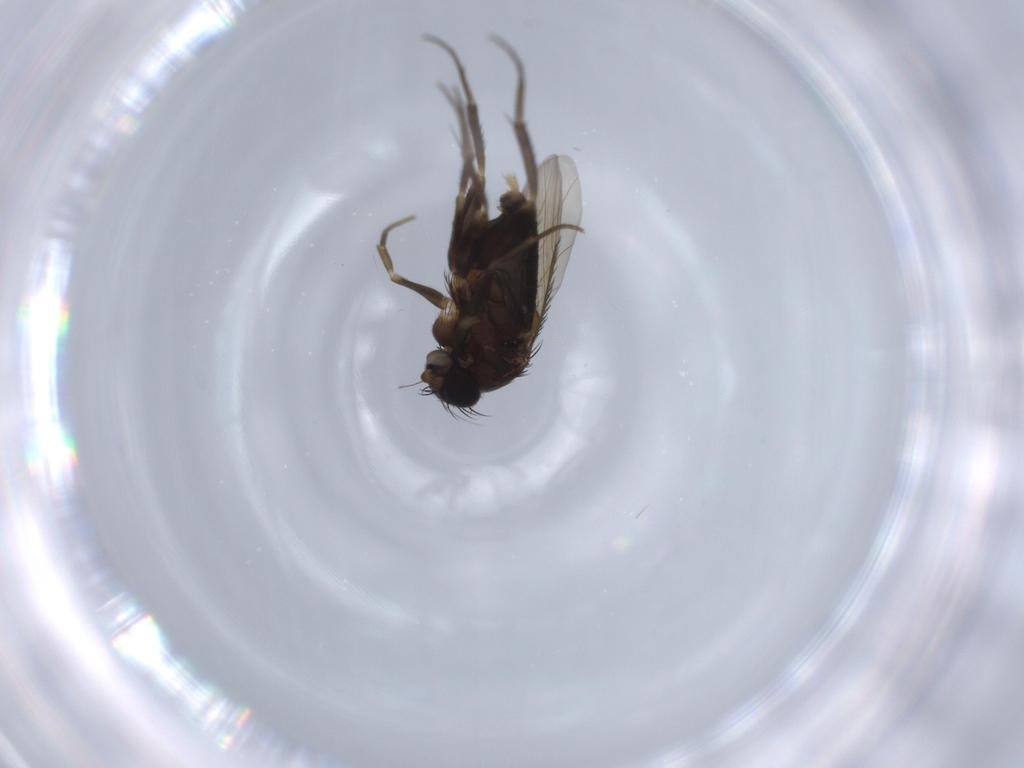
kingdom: Animalia
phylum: Arthropoda
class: Insecta
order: Diptera
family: Phoridae
